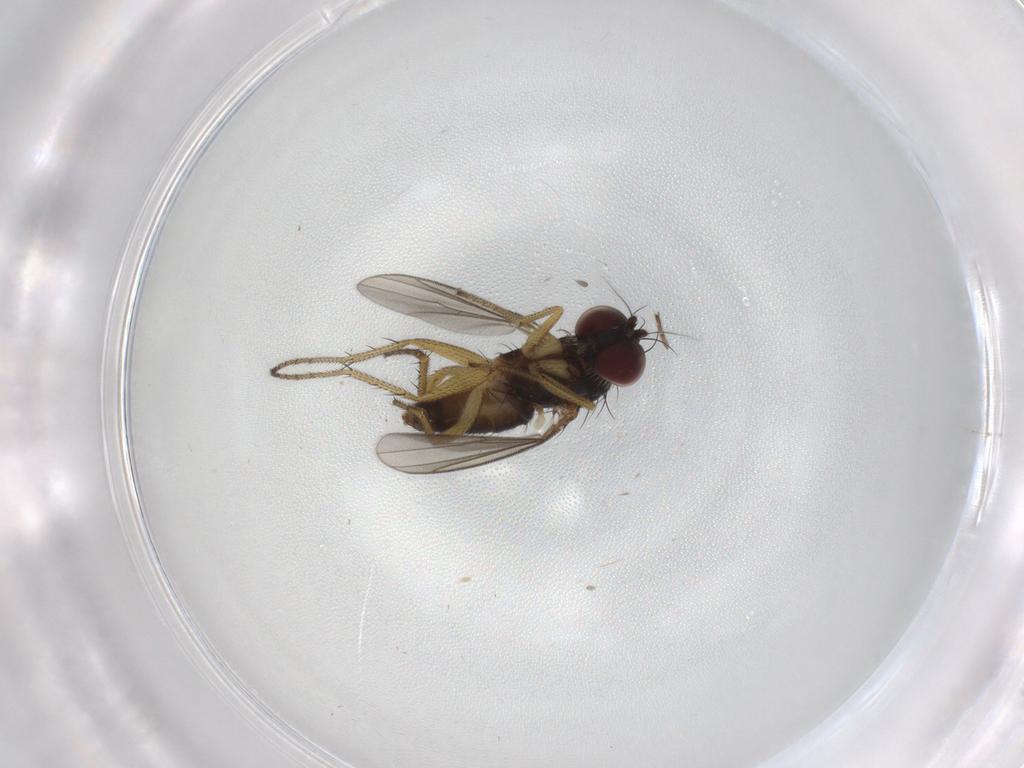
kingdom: Animalia
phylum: Arthropoda
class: Insecta
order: Diptera
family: Dolichopodidae
